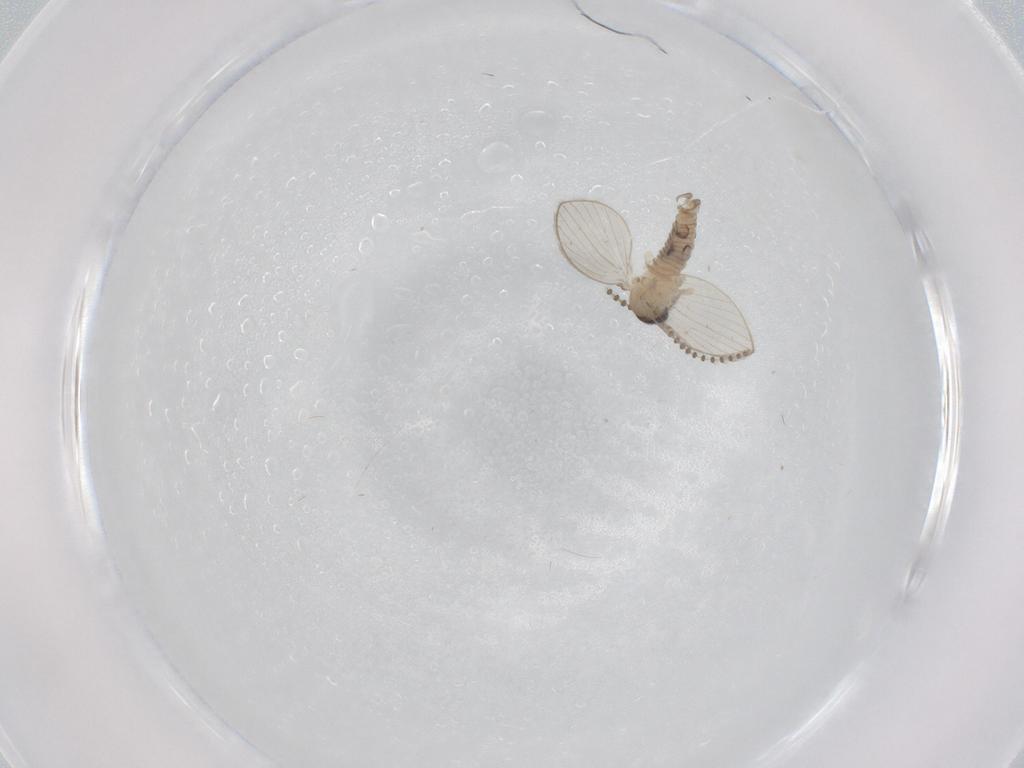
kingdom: Animalia
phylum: Arthropoda
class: Insecta
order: Diptera
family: Psychodidae
